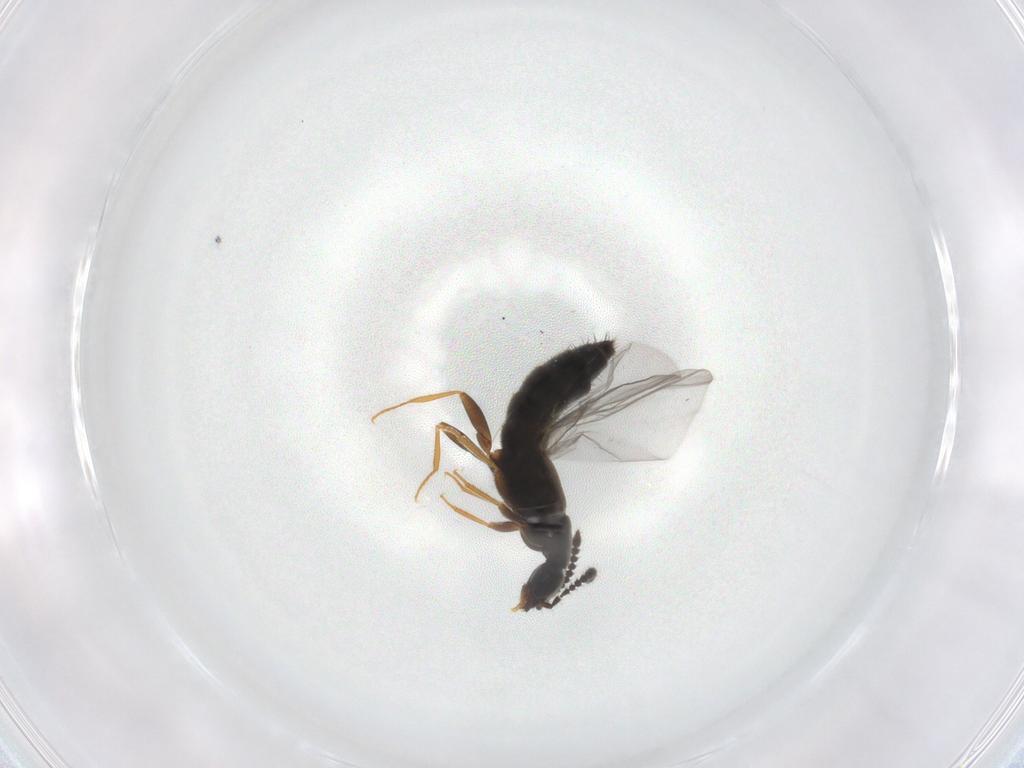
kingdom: Animalia
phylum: Arthropoda
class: Insecta
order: Coleoptera
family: Staphylinidae
